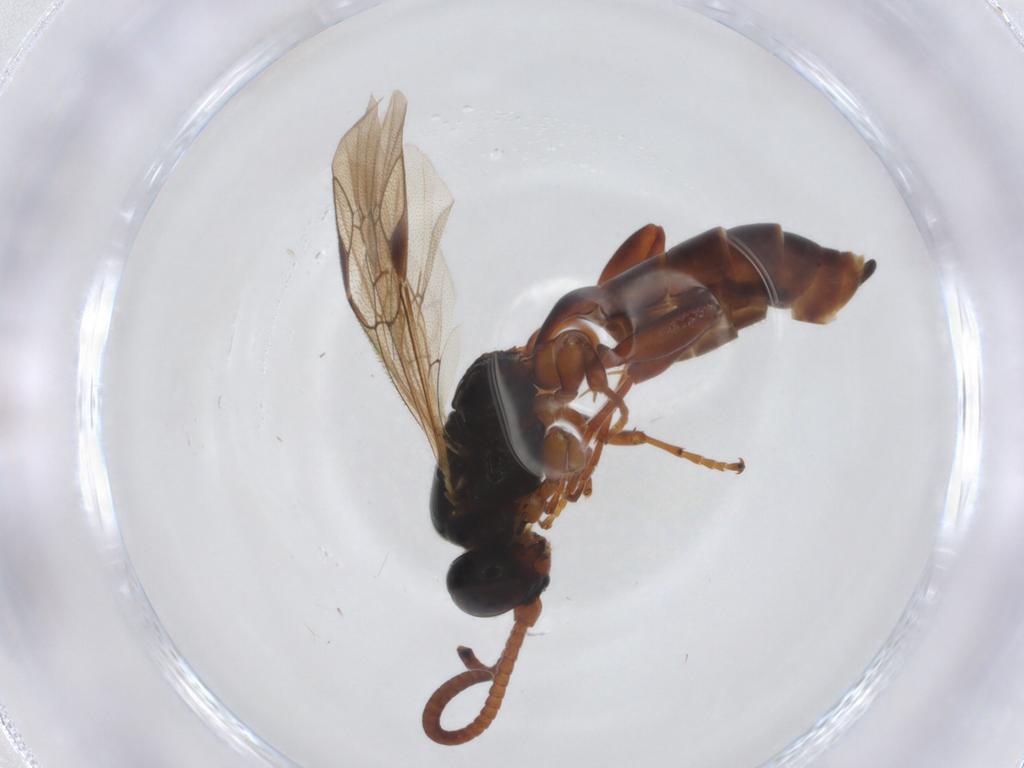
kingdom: Animalia
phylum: Arthropoda
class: Insecta
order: Hymenoptera
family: Ichneumonidae
